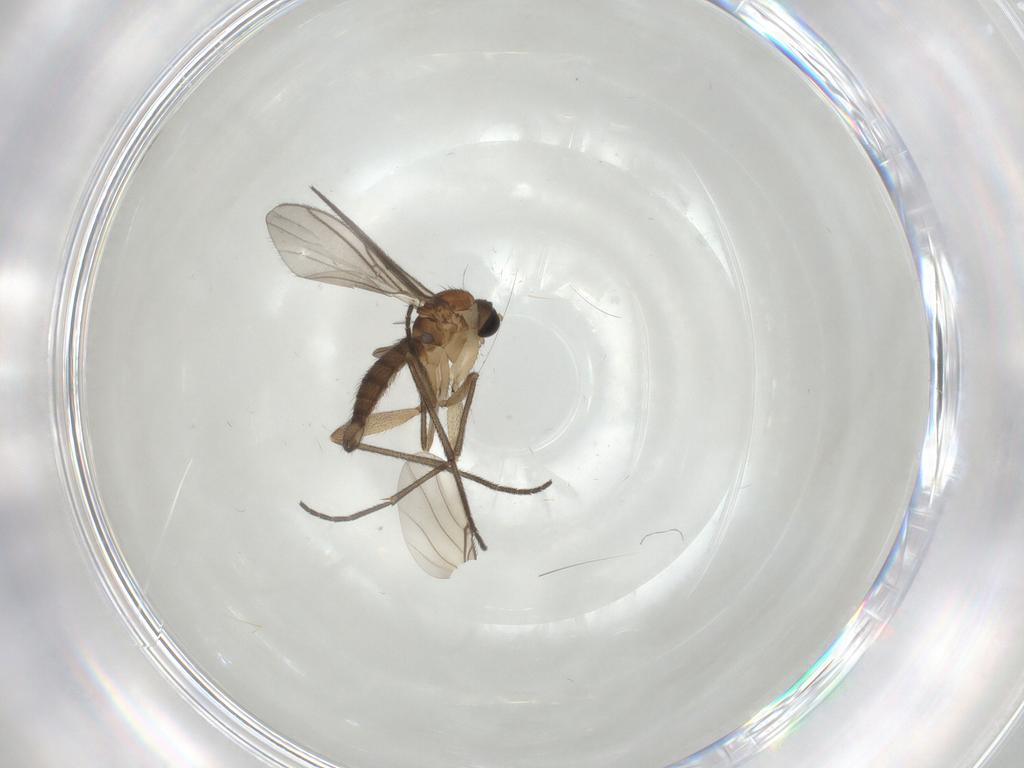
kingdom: Animalia
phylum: Arthropoda
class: Insecta
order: Diptera
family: Sciaridae
